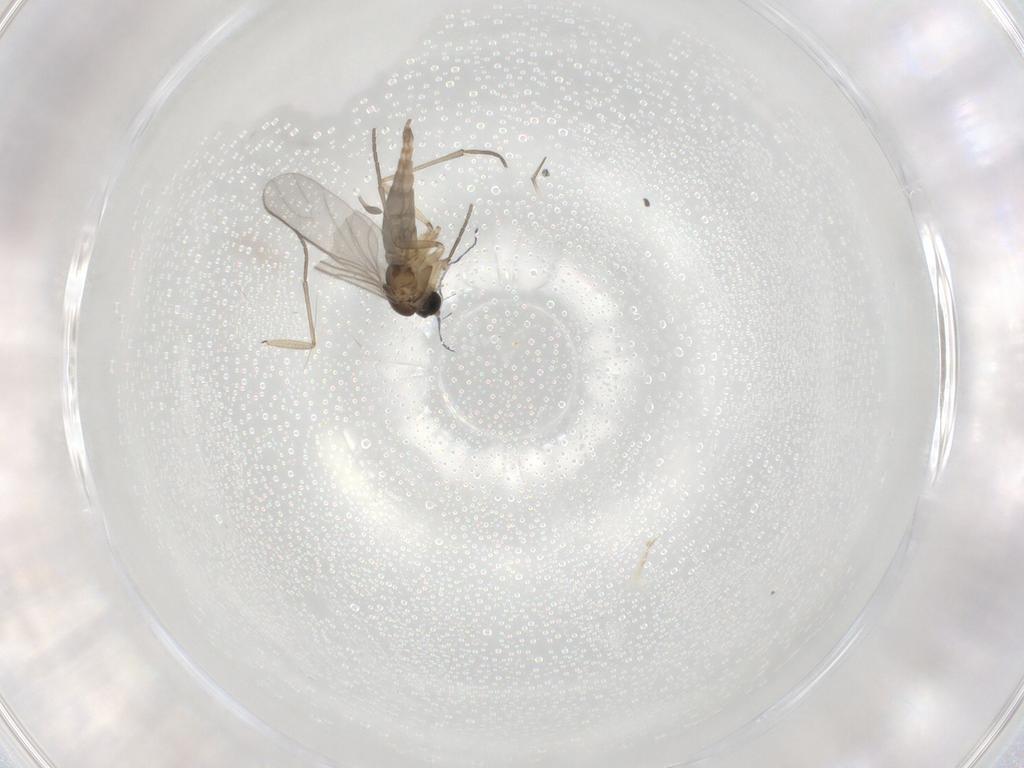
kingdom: Animalia
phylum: Arthropoda
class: Insecta
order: Diptera
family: Sciaridae
